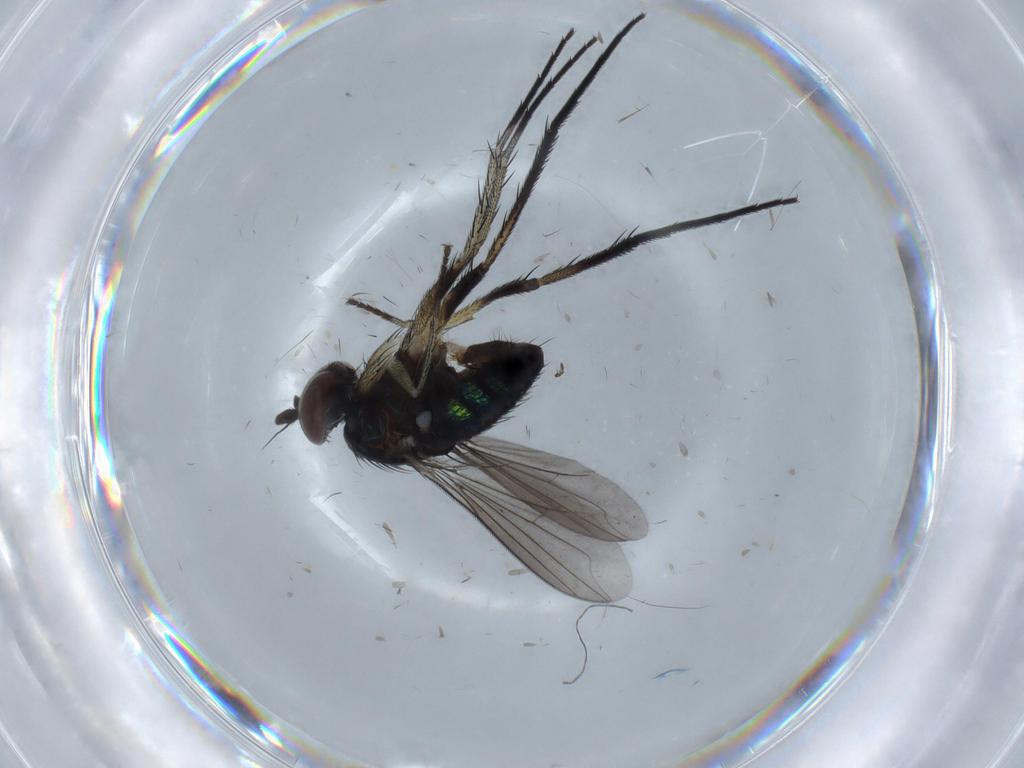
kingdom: Animalia
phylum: Arthropoda
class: Insecta
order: Diptera
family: Dolichopodidae
